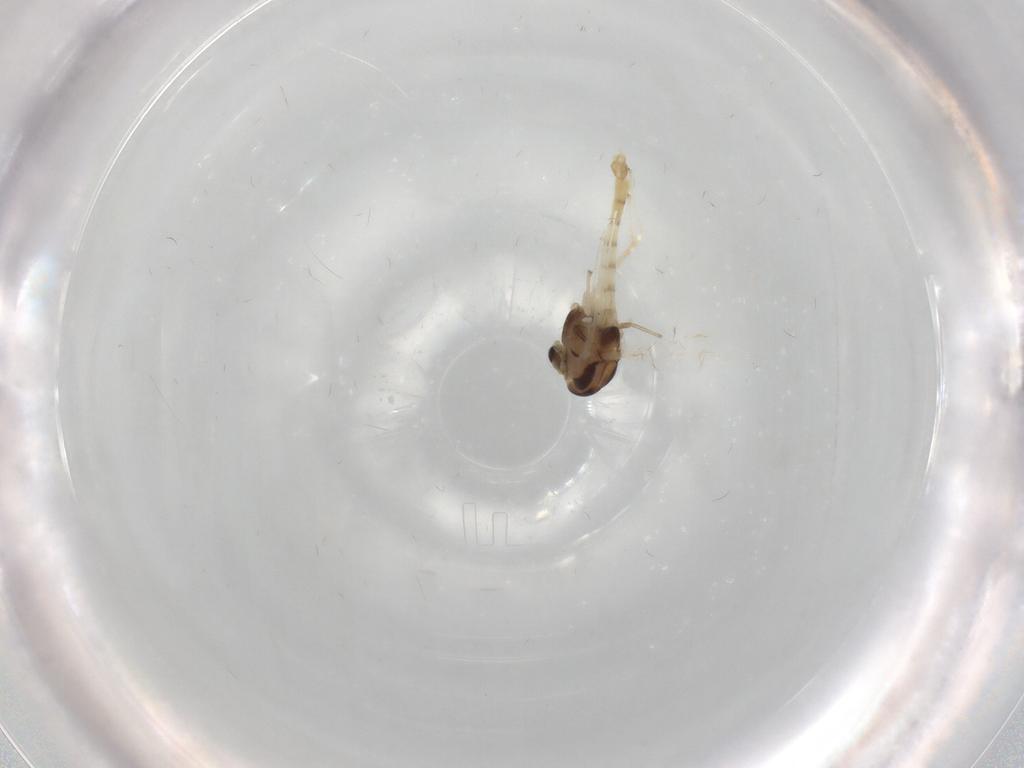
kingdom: Animalia
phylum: Arthropoda
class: Insecta
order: Diptera
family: Chironomidae
